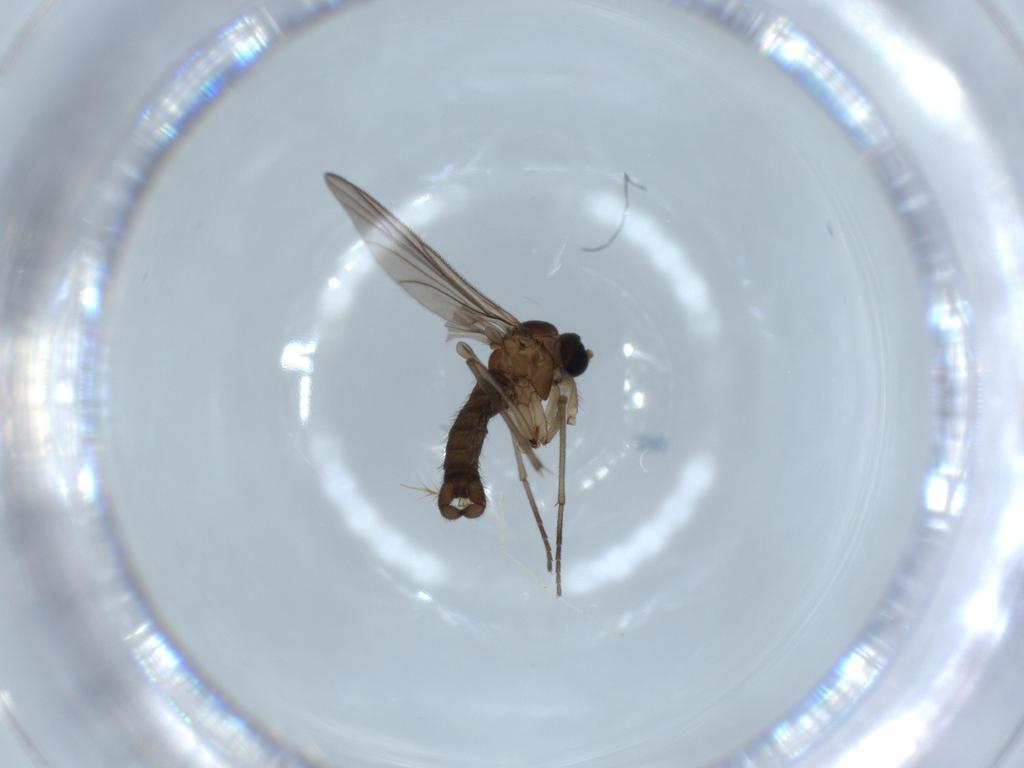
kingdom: Animalia
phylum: Arthropoda
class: Insecta
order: Diptera
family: Sciaridae
